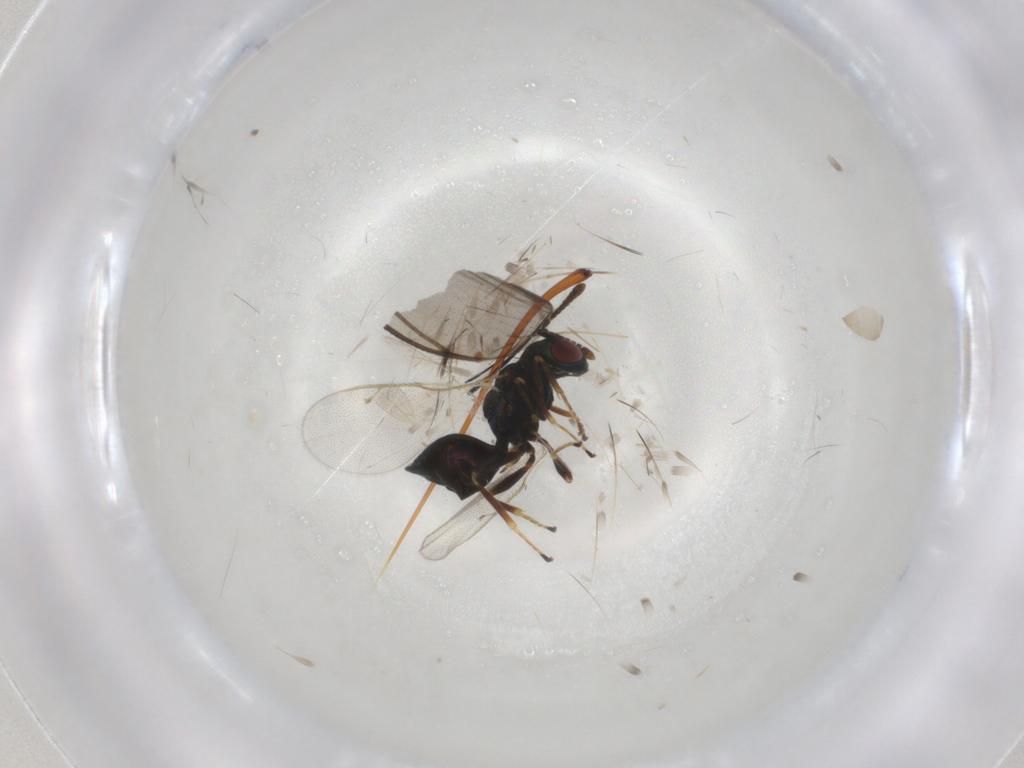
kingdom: Animalia
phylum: Arthropoda
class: Insecta
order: Hymenoptera
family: Pteromalidae
